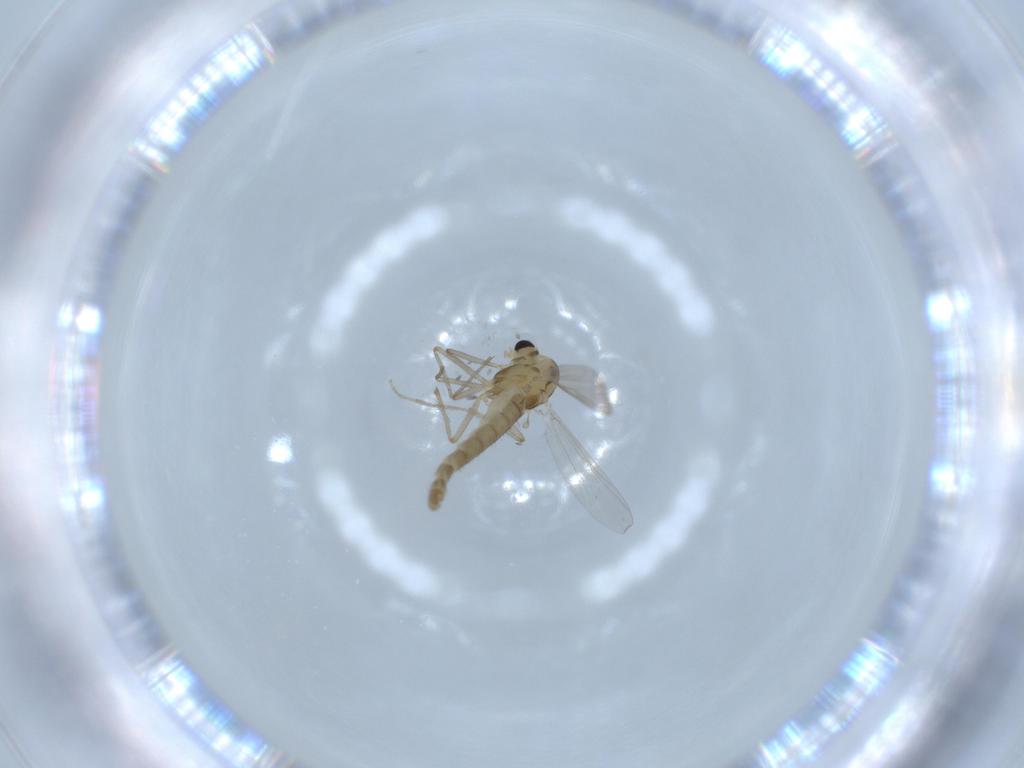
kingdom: Animalia
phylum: Arthropoda
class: Insecta
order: Diptera
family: Chironomidae
